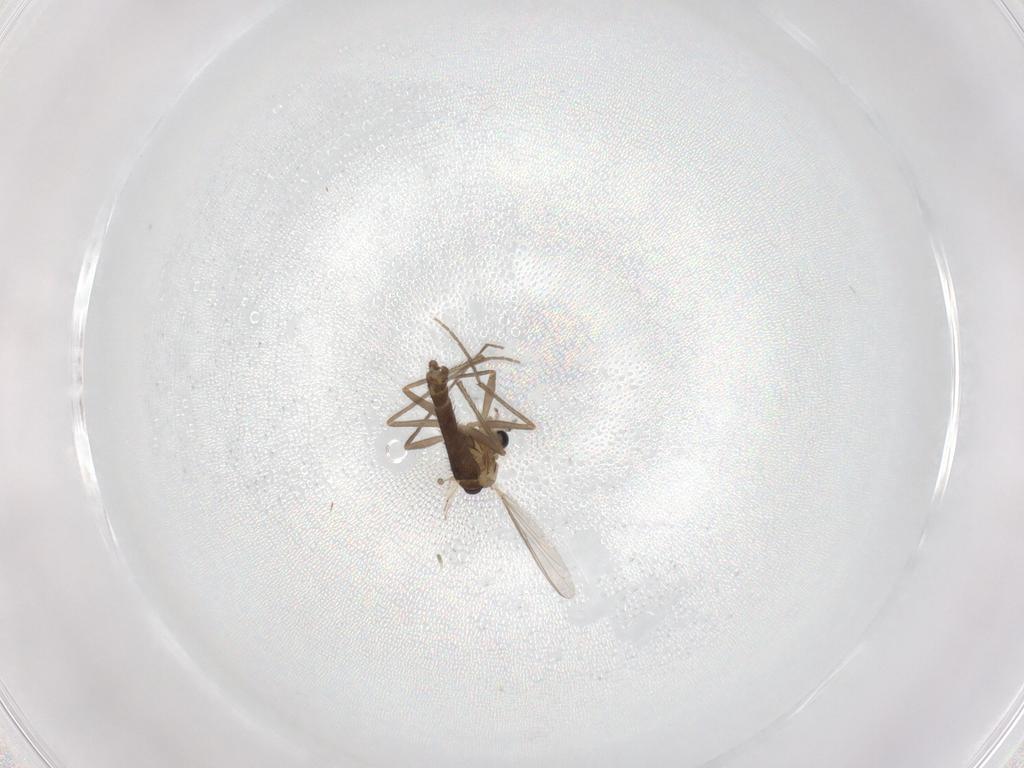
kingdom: Animalia
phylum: Arthropoda
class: Insecta
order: Diptera
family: Chironomidae
